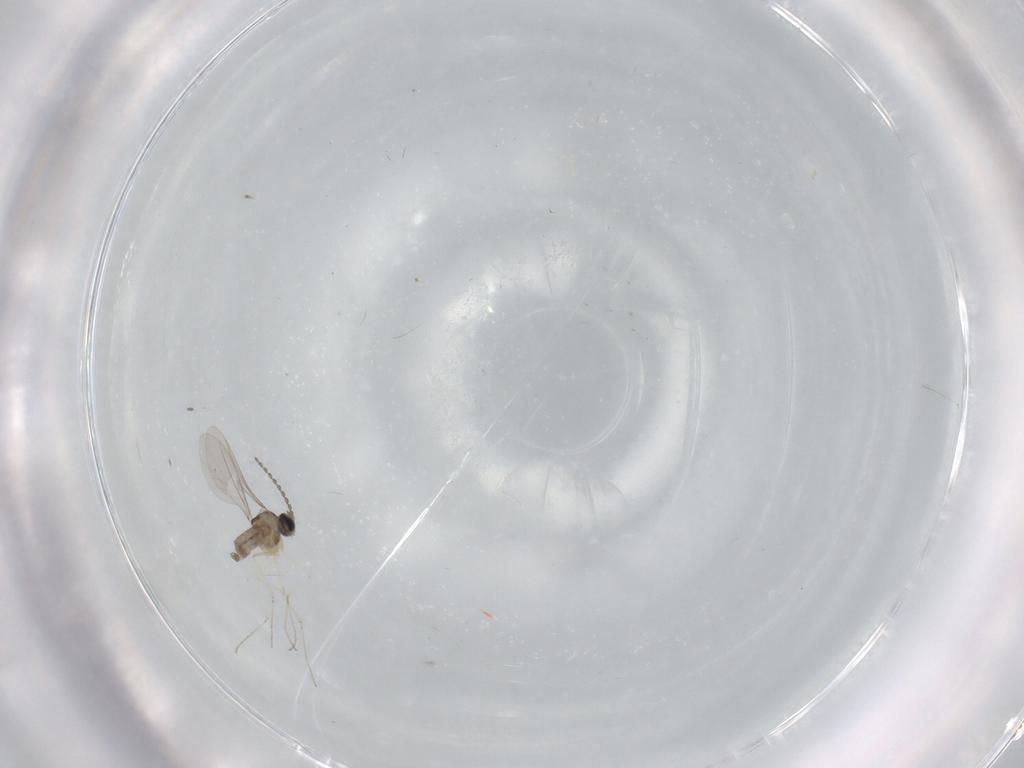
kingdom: Animalia
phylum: Arthropoda
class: Insecta
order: Diptera
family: Cecidomyiidae
